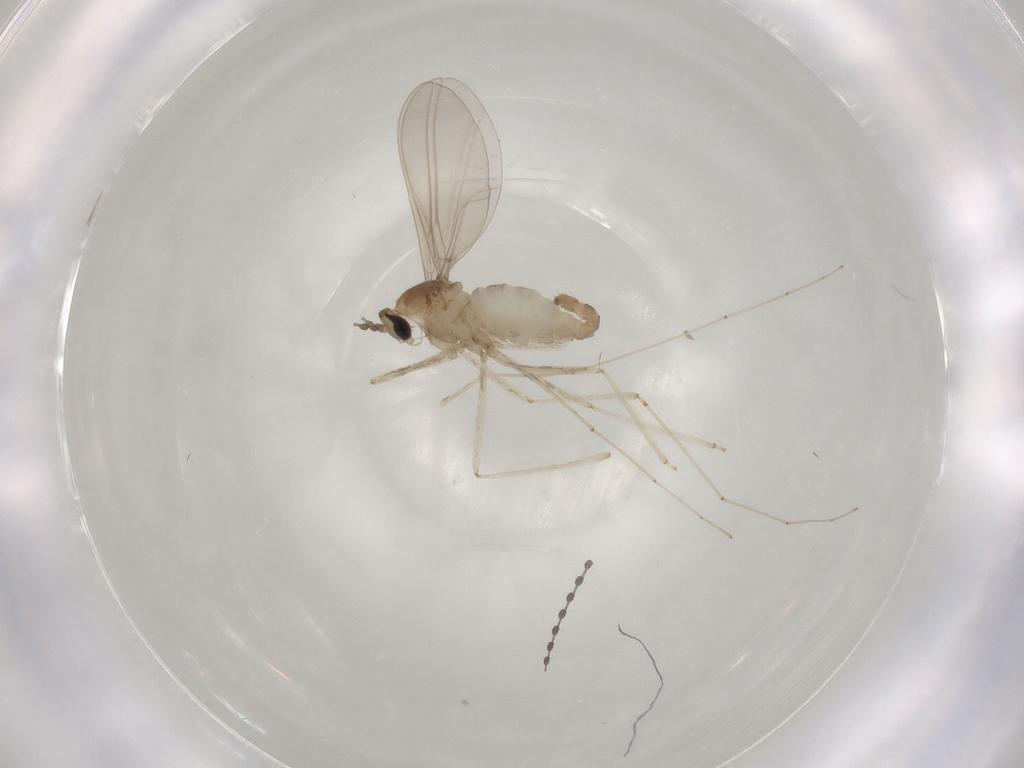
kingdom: Animalia
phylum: Arthropoda
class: Insecta
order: Diptera
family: Cecidomyiidae
